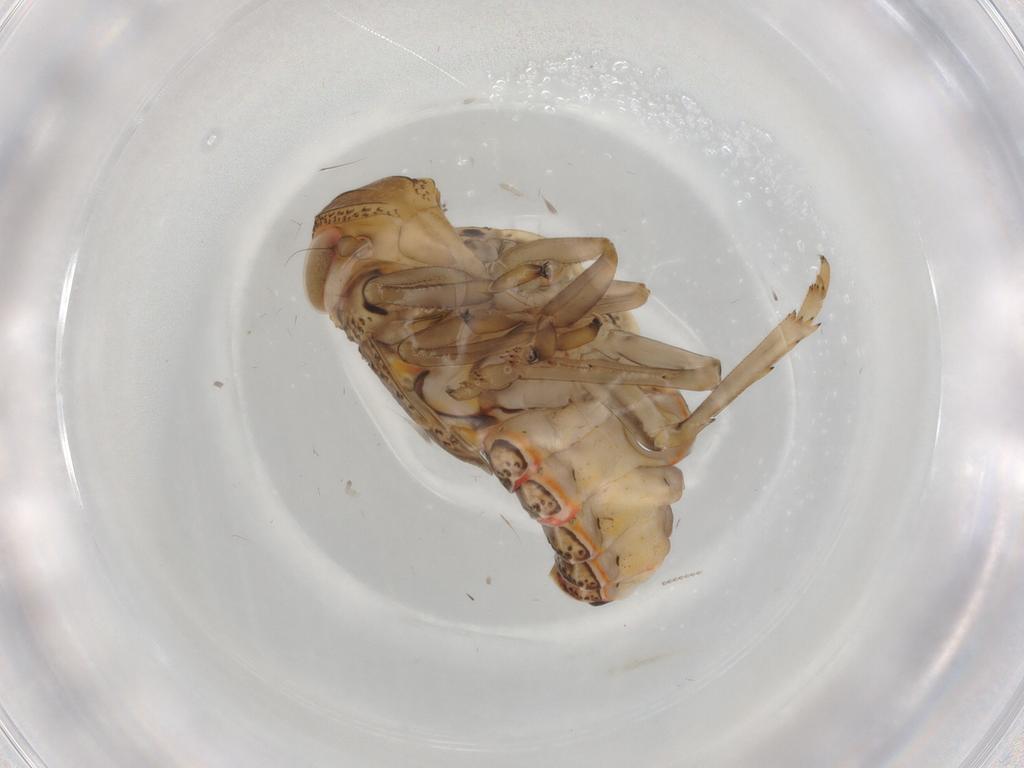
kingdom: Animalia
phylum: Arthropoda
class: Insecta
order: Hemiptera
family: Issidae
